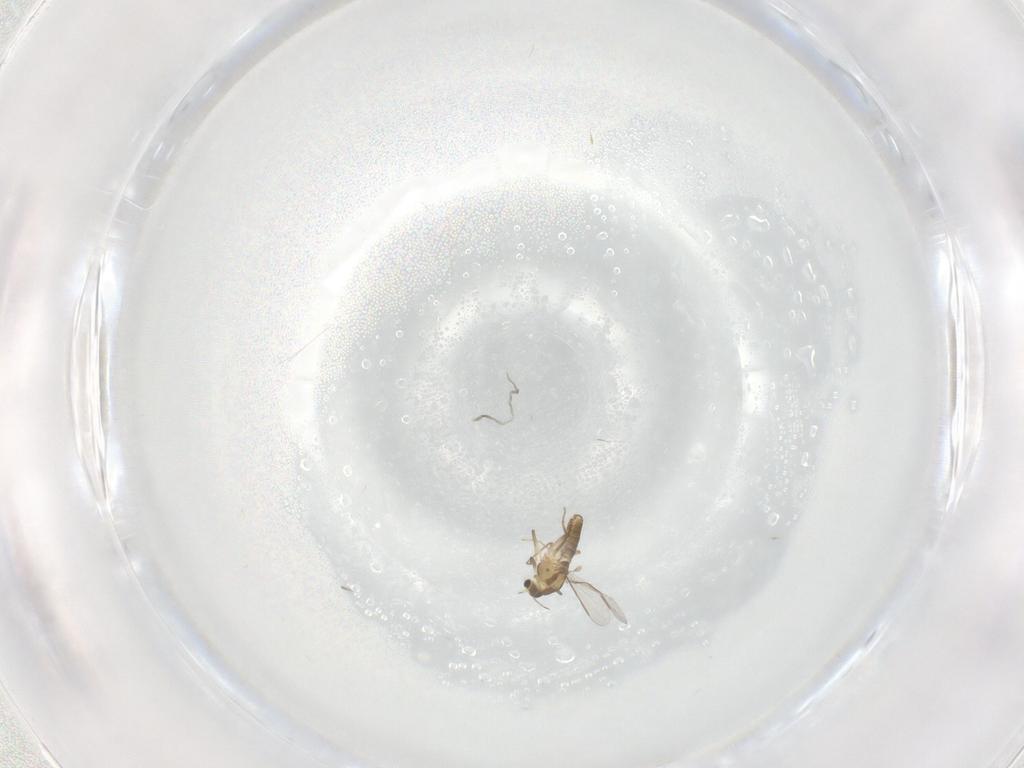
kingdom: Animalia
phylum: Arthropoda
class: Insecta
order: Diptera
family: Chironomidae
